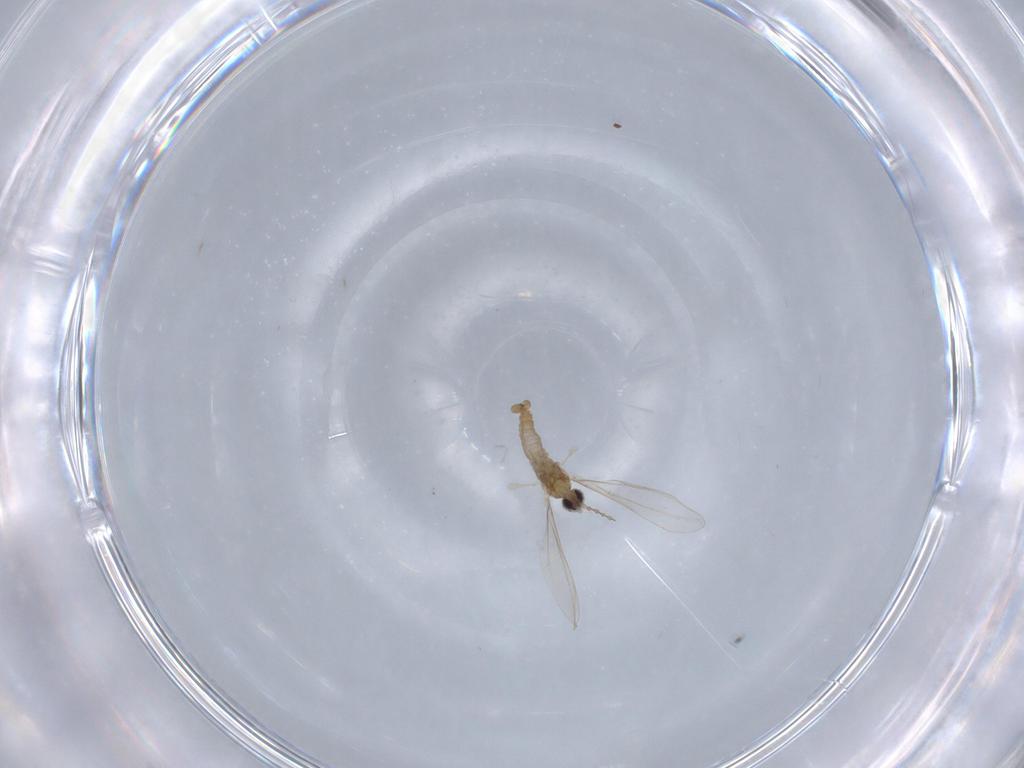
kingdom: Animalia
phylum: Arthropoda
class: Insecta
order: Diptera
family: Cecidomyiidae
